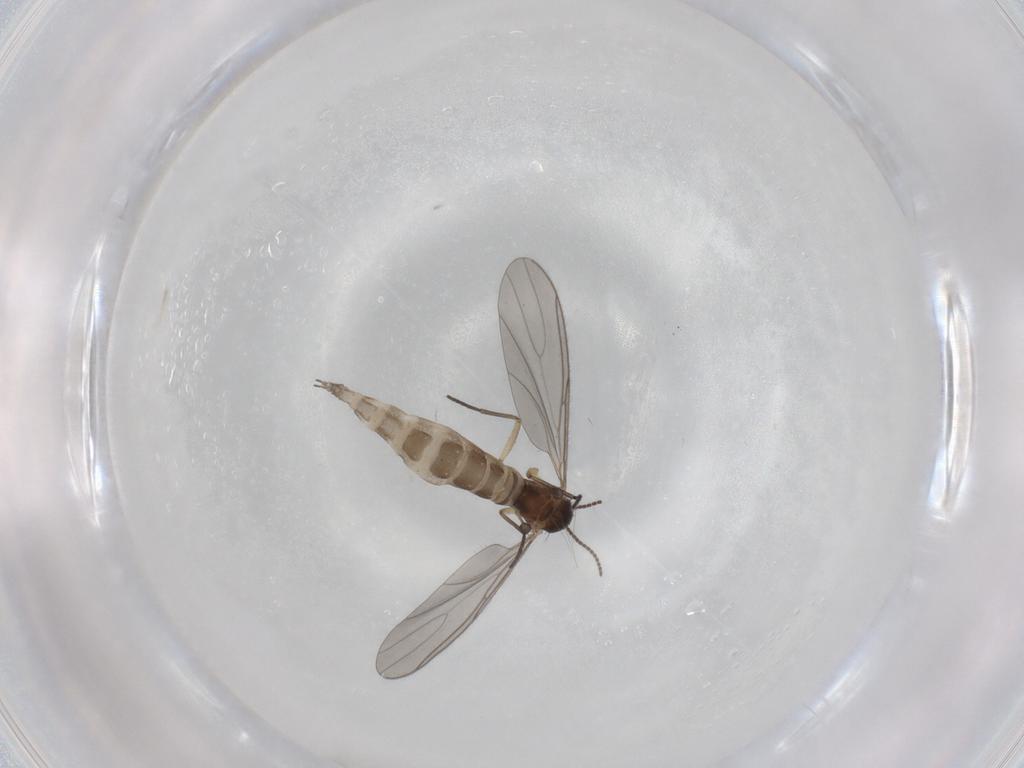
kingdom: Animalia
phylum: Arthropoda
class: Insecta
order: Diptera
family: Sciaridae
